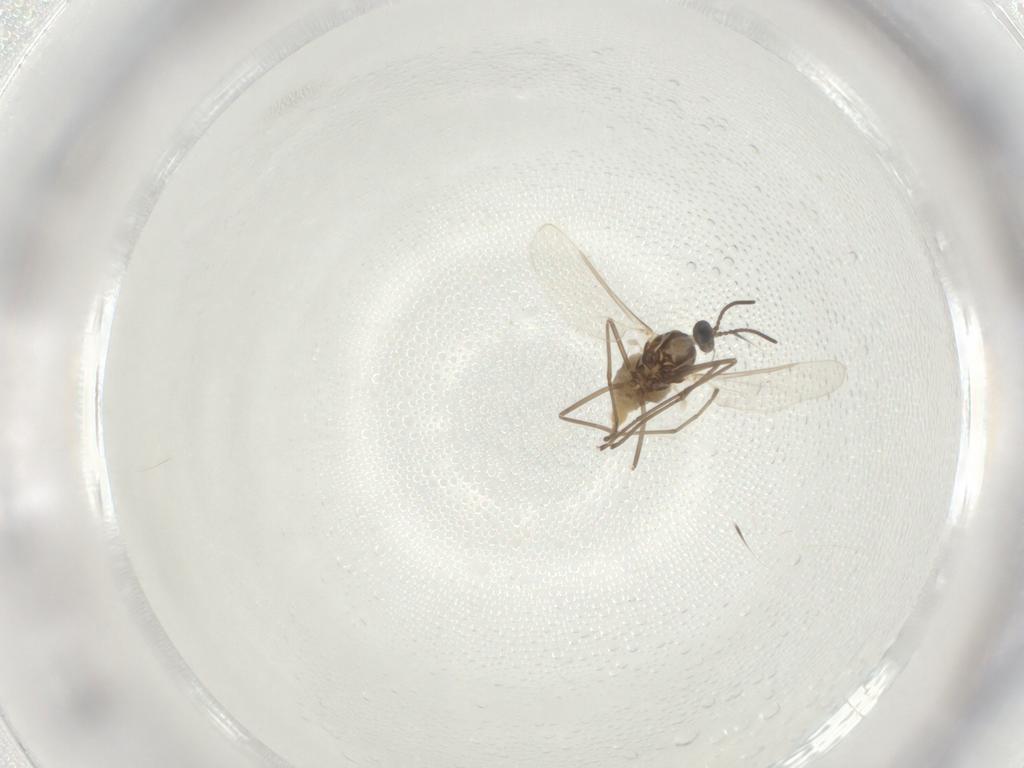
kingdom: Animalia
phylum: Arthropoda
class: Insecta
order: Diptera
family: Cecidomyiidae
